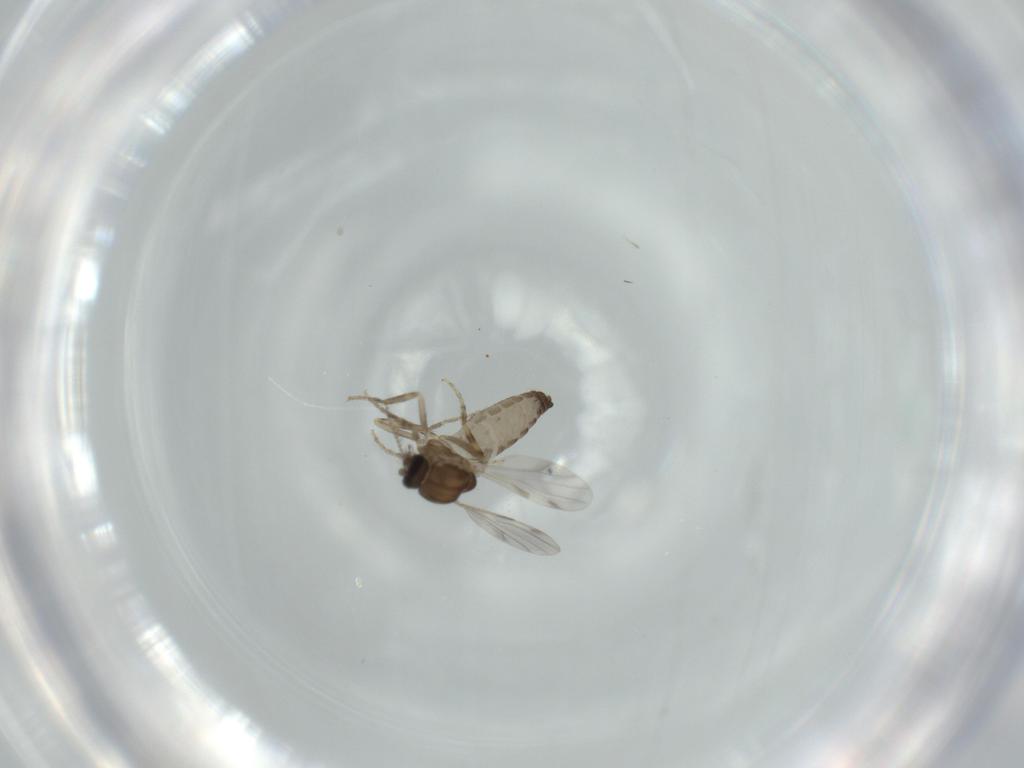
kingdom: Animalia
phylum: Arthropoda
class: Insecta
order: Diptera
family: Ceratopogonidae
